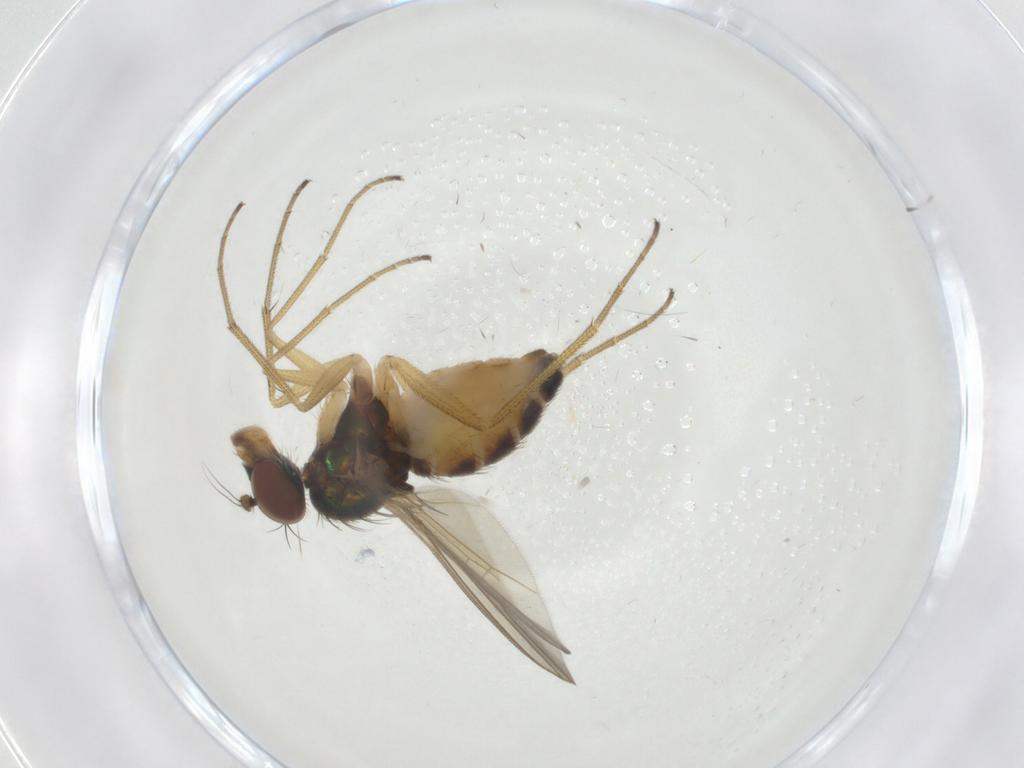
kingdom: Animalia
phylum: Arthropoda
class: Insecta
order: Diptera
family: Dolichopodidae
